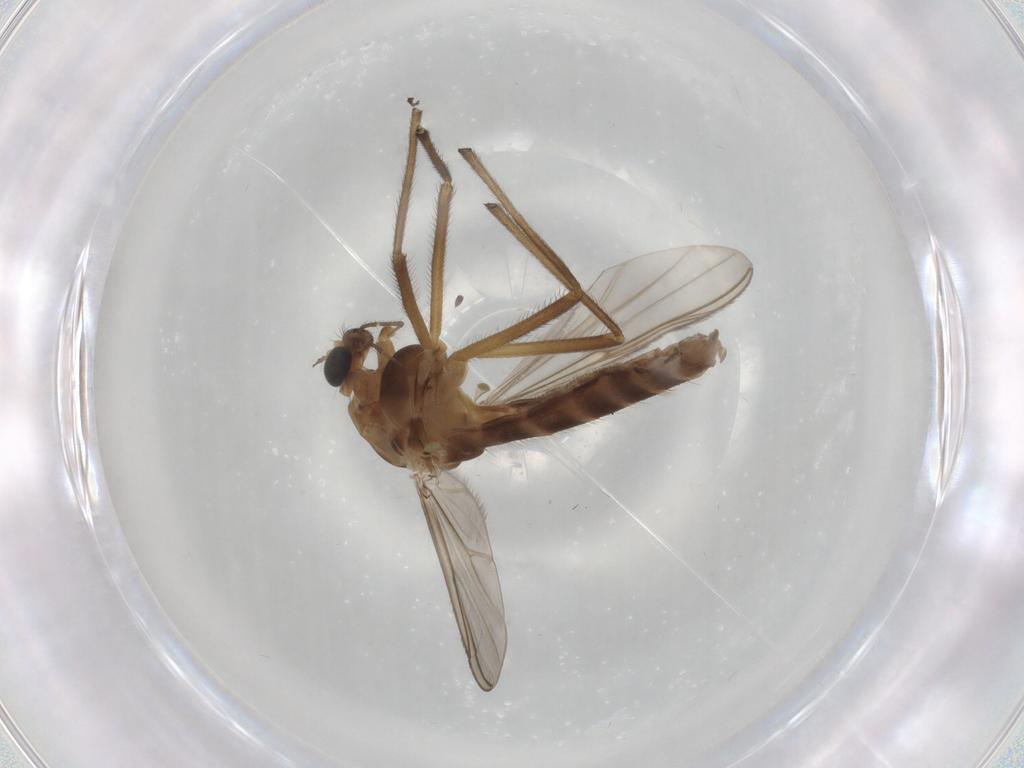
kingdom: Animalia
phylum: Arthropoda
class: Insecta
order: Diptera
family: Chironomidae
